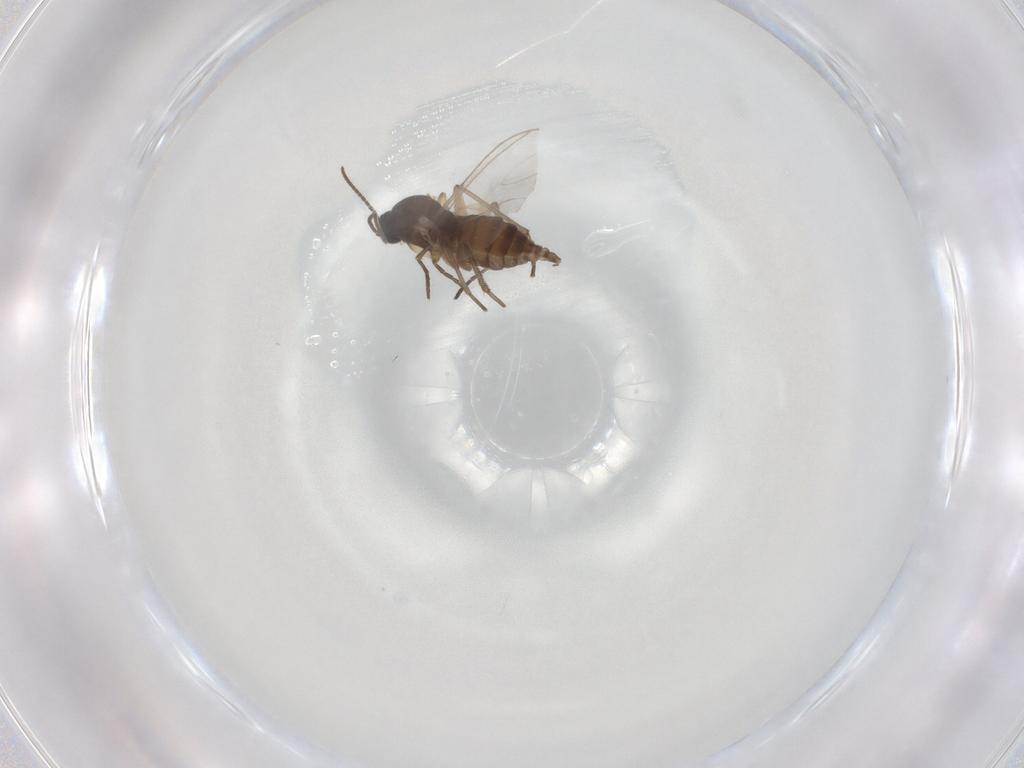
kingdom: Animalia
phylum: Arthropoda
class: Insecta
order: Diptera
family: Sciaridae
